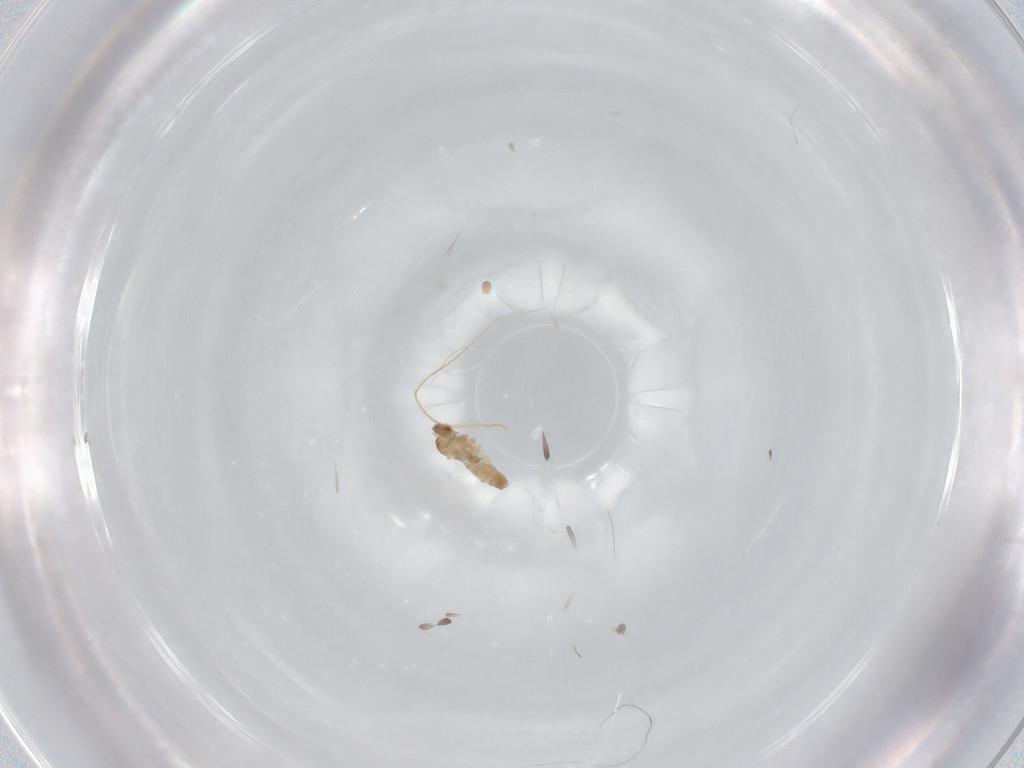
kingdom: Animalia
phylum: Arthropoda
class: Insecta
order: Diptera
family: Cecidomyiidae
